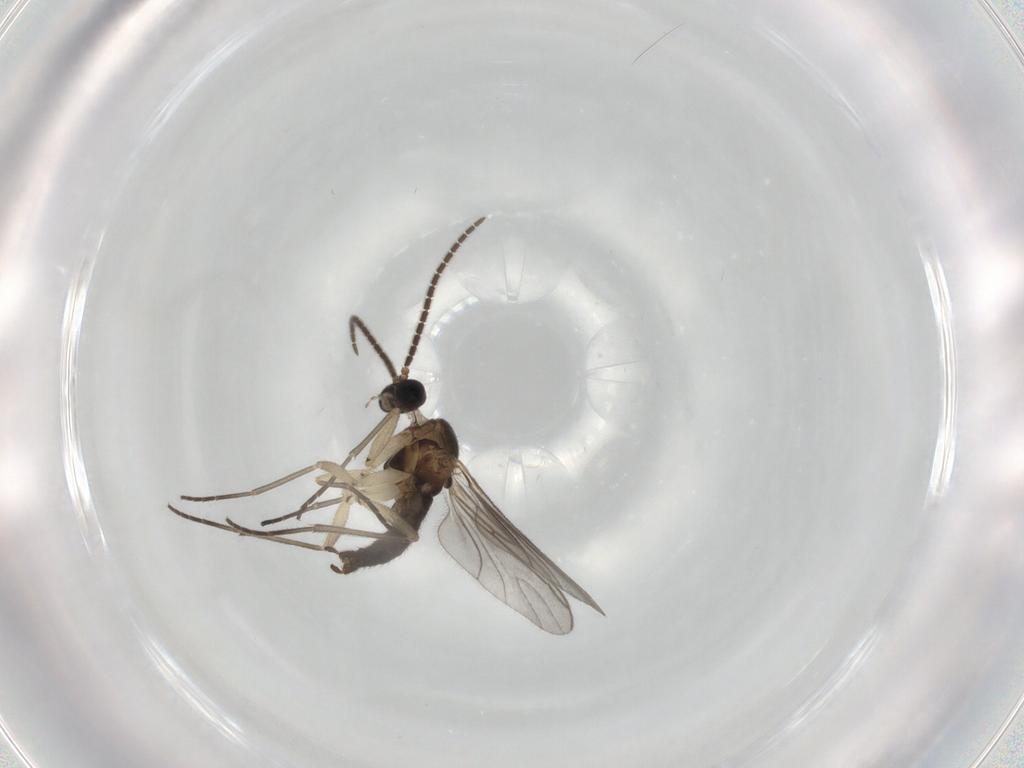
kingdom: Animalia
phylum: Arthropoda
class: Insecta
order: Diptera
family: Sciaridae
